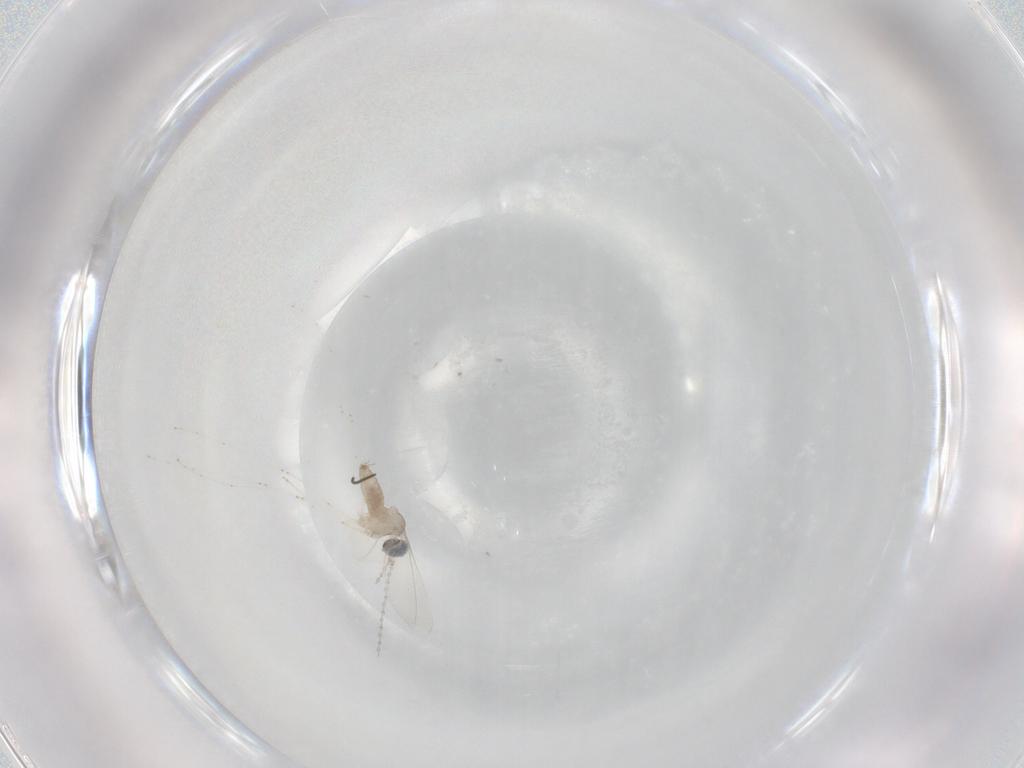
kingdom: Animalia
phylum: Arthropoda
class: Insecta
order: Diptera
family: Sciaridae
